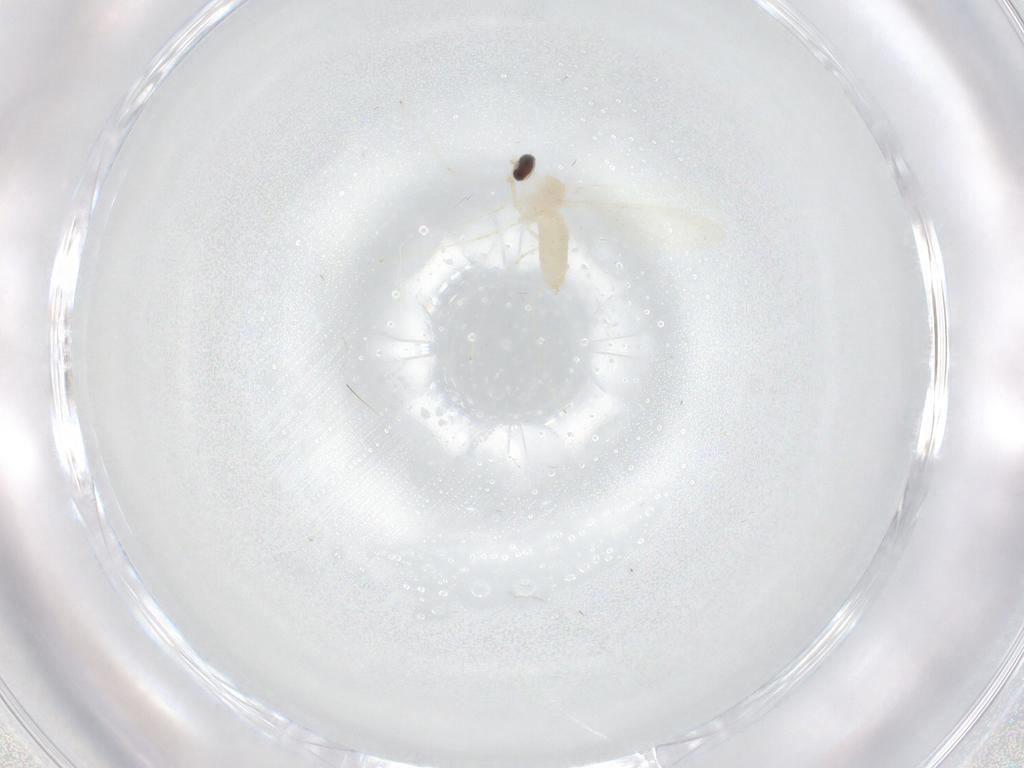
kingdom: Animalia
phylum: Arthropoda
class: Insecta
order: Diptera
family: Cecidomyiidae
